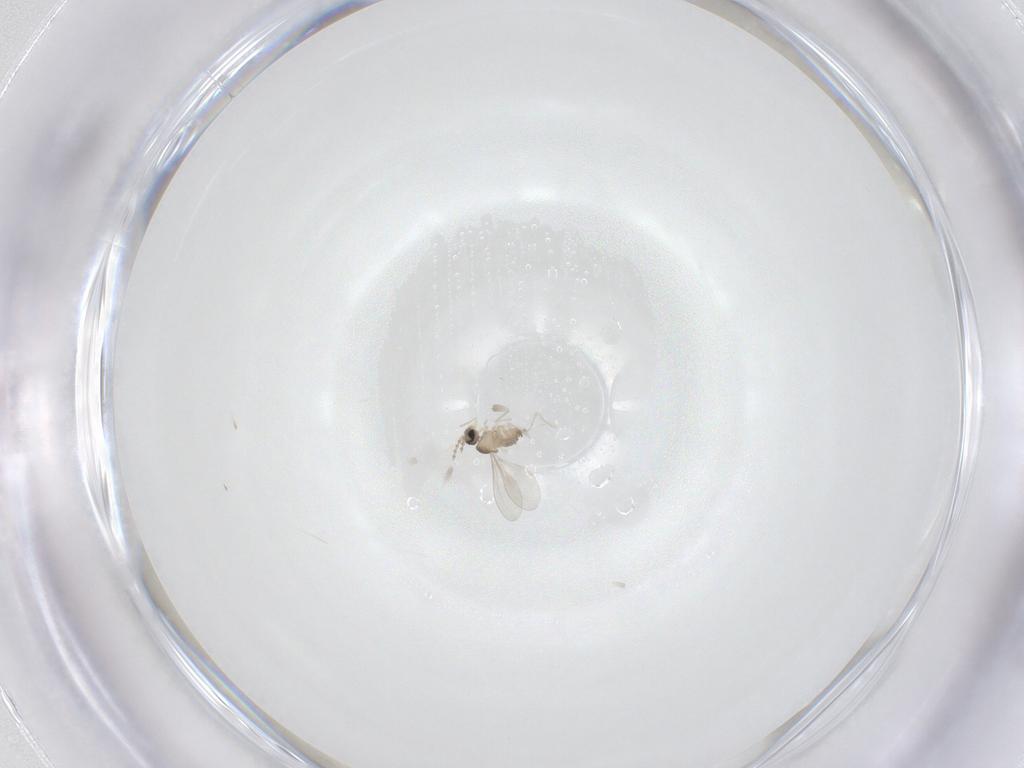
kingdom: Animalia
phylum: Arthropoda
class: Insecta
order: Diptera
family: Cecidomyiidae
